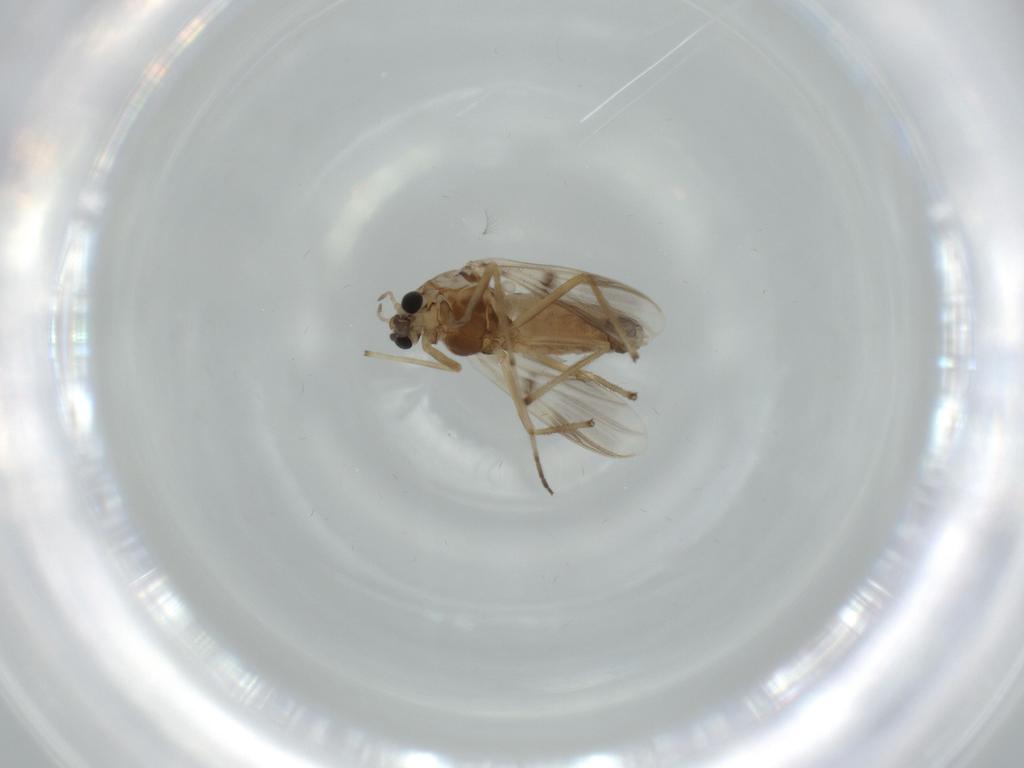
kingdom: Animalia
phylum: Arthropoda
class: Insecta
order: Diptera
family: Chironomidae
